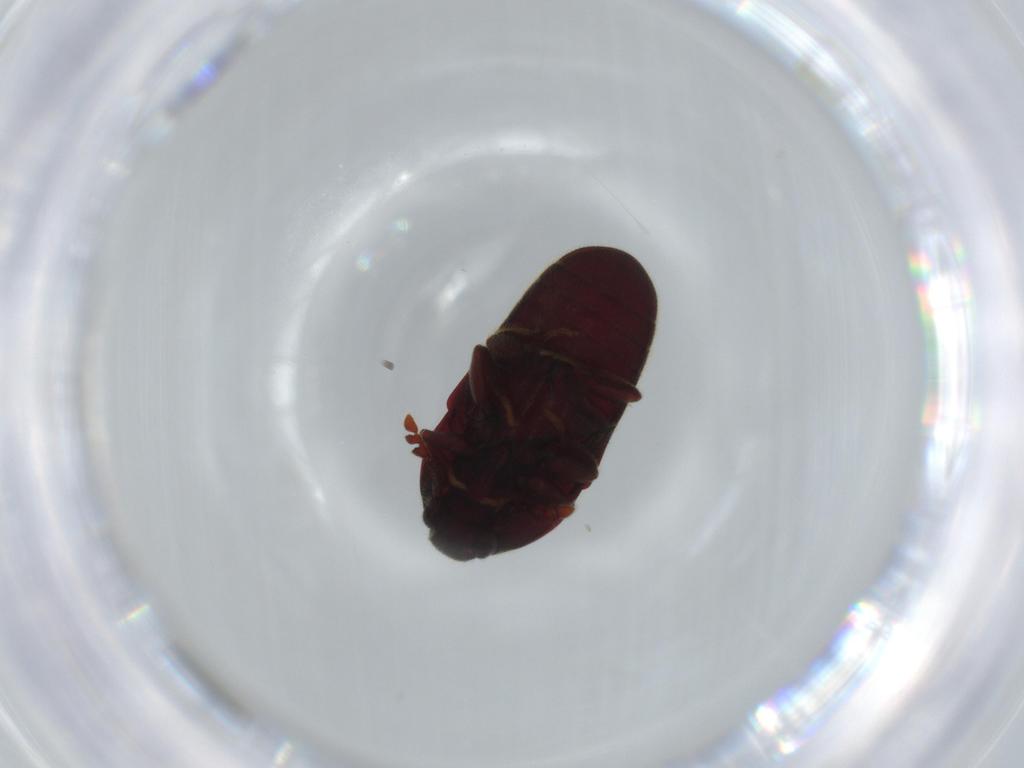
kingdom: Animalia
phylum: Arthropoda
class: Insecta
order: Coleoptera
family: Throscidae
